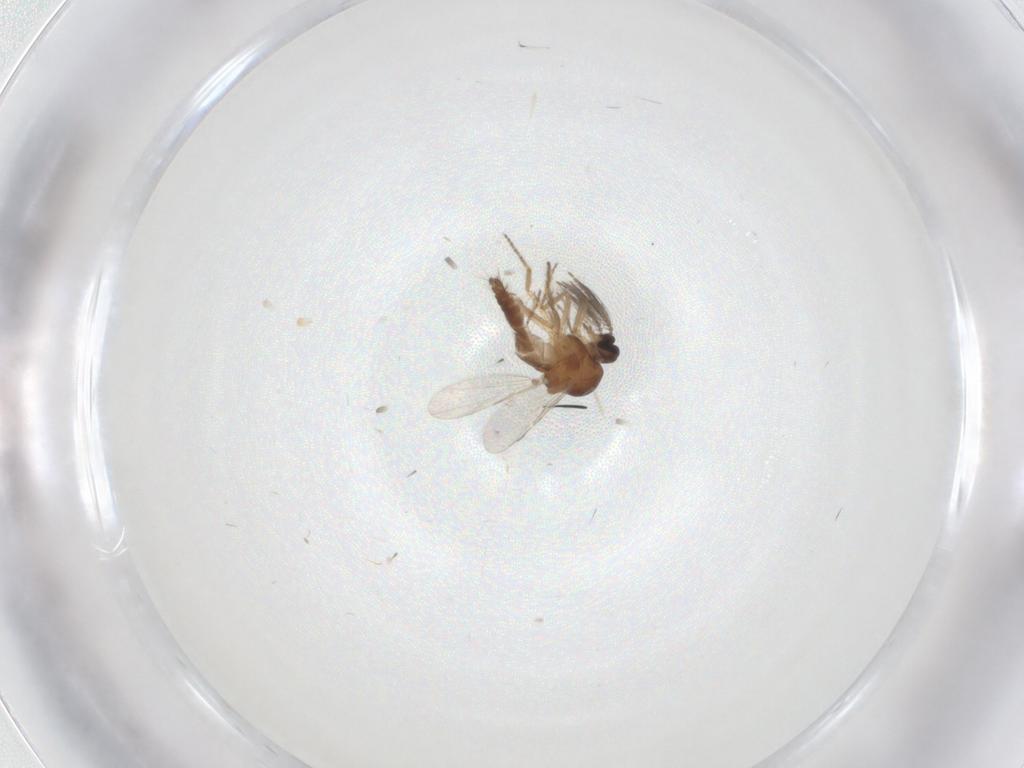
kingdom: Animalia
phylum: Arthropoda
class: Insecta
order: Diptera
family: Ceratopogonidae
